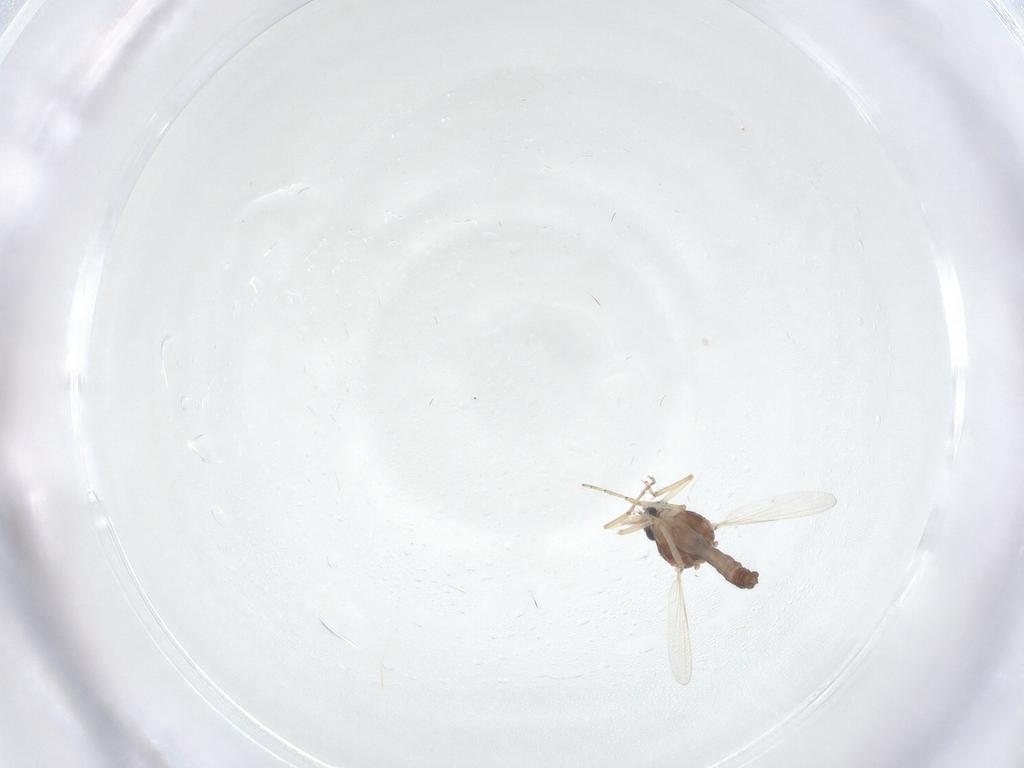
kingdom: Animalia
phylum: Arthropoda
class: Insecta
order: Diptera
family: Ceratopogonidae
